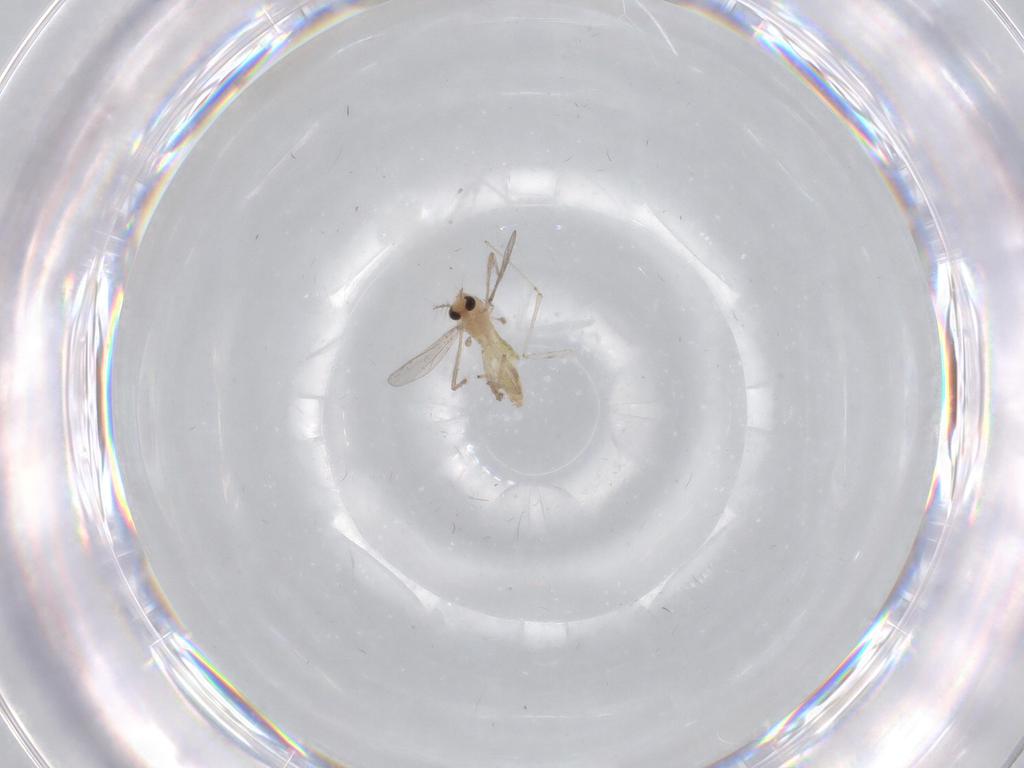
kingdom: Animalia
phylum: Arthropoda
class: Insecta
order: Diptera
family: Chironomidae
